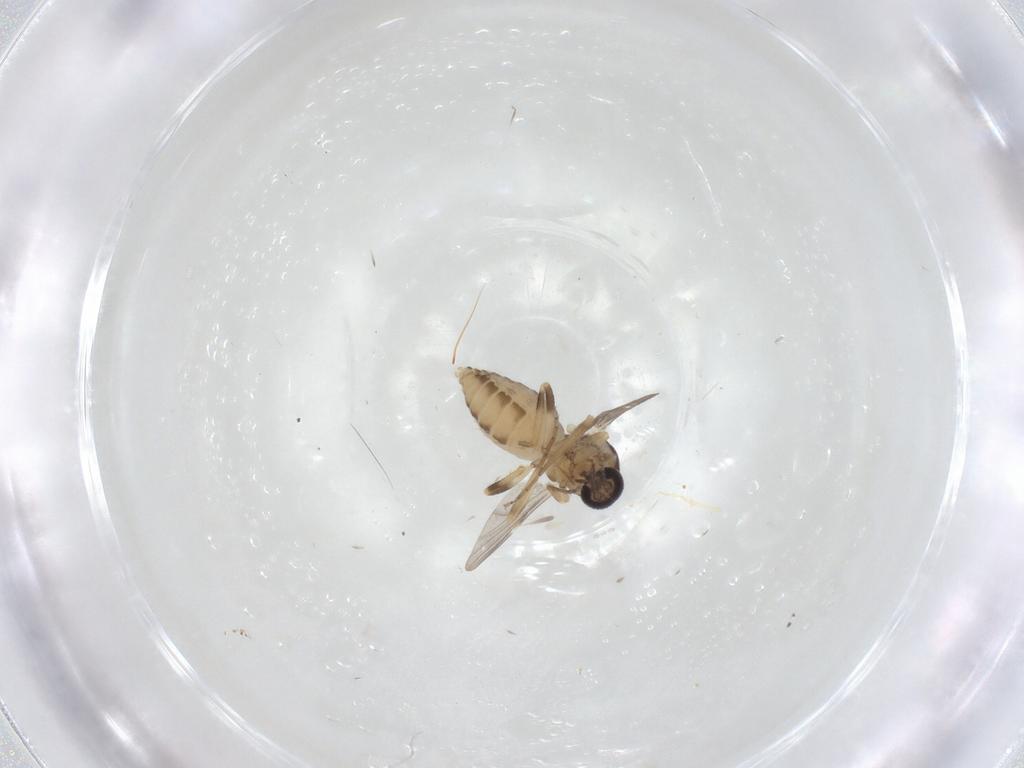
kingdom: Animalia
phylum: Arthropoda
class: Insecta
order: Diptera
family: Ceratopogonidae
